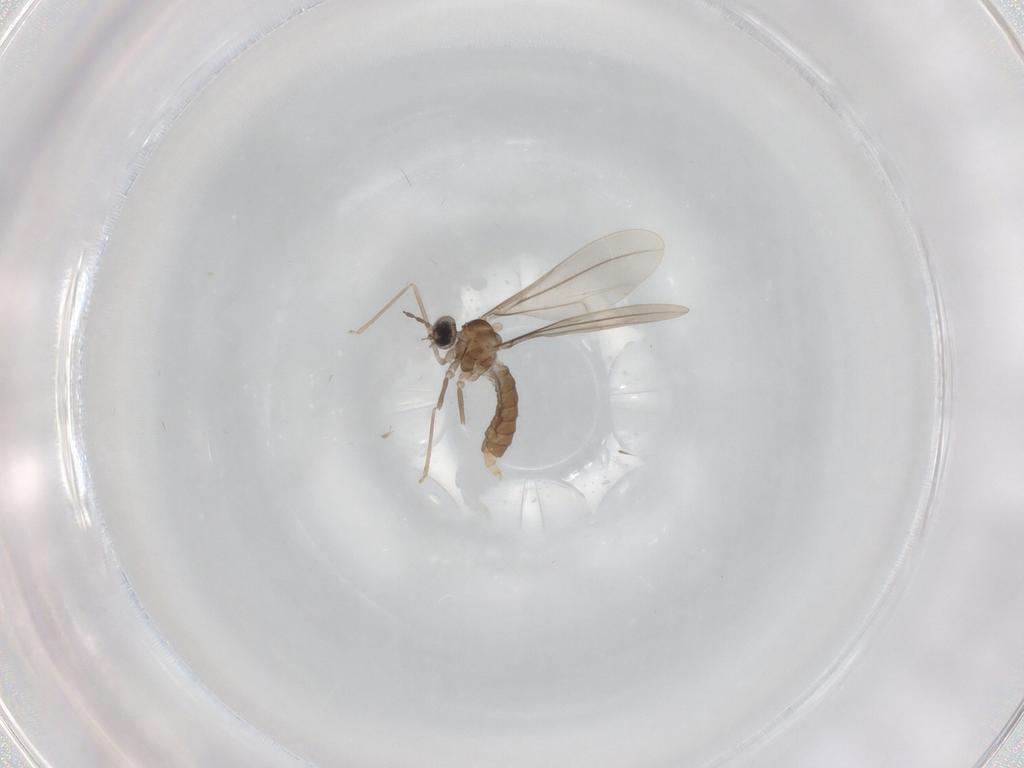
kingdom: Animalia
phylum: Arthropoda
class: Insecta
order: Diptera
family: Cecidomyiidae
